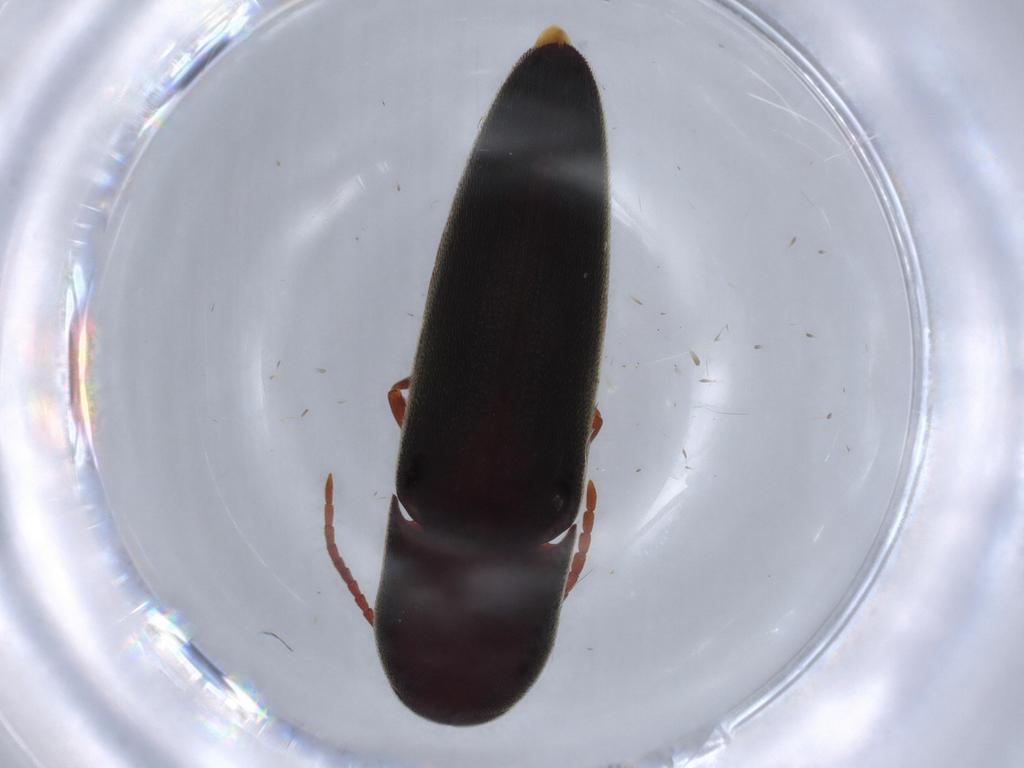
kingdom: Animalia
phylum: Arthropoda
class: Insecta
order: Coleoptera
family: Eucnemidae
